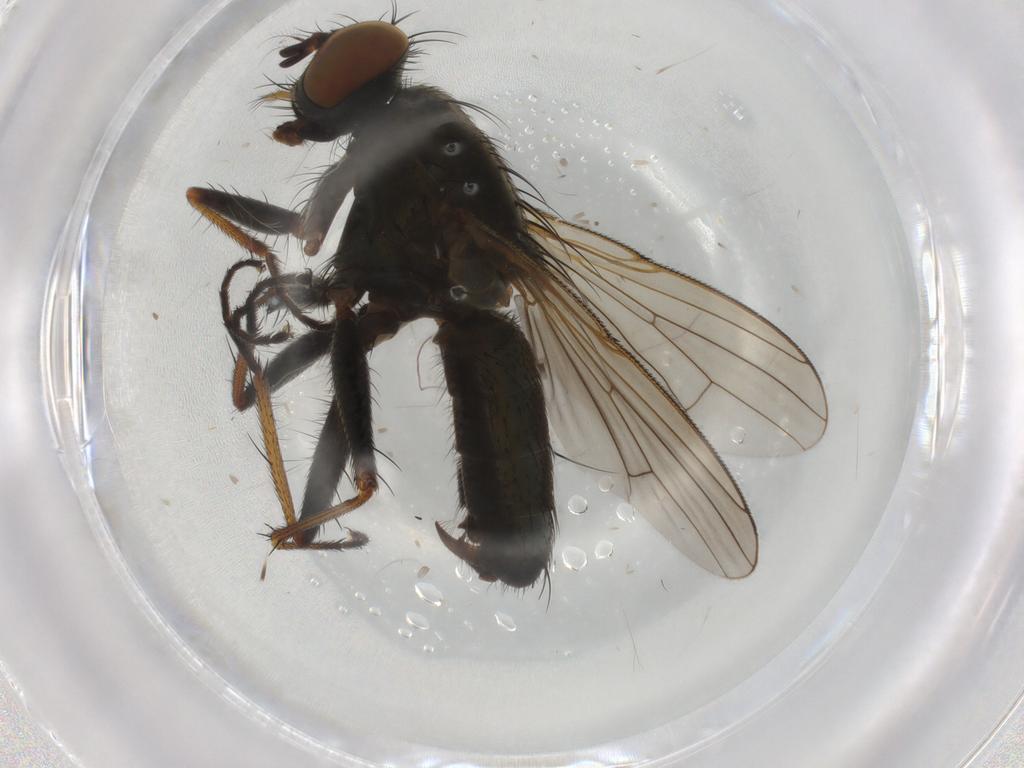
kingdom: Animalia
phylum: Arthropoda
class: Insecta
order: Diptera
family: Muscidae
